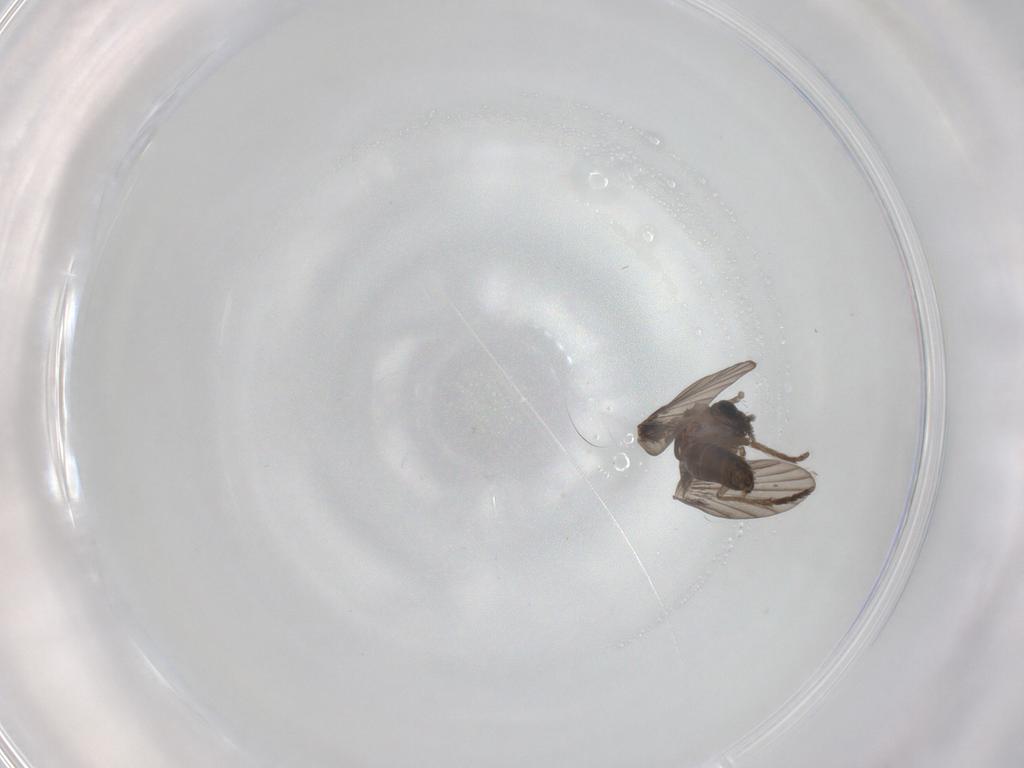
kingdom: Animalia
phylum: Arthropoda
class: Insecta
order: Diptera
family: Psychodidae
